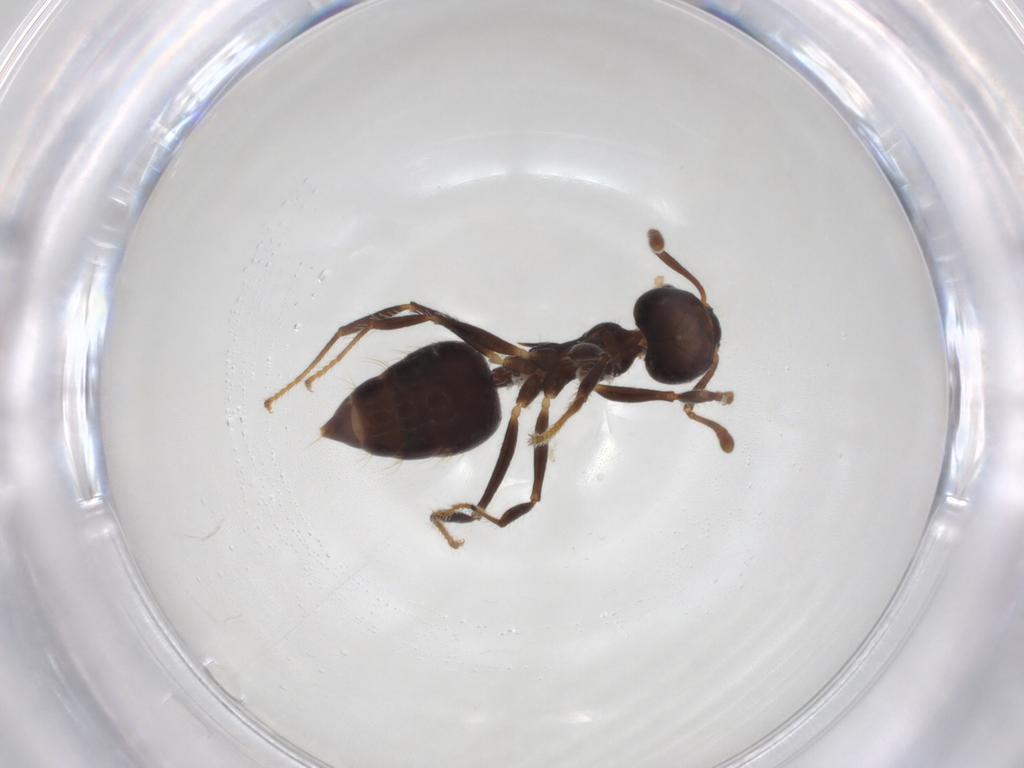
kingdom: Animalia
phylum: Arthropoda
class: Insecta
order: Hymenoptera
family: Formicidae
